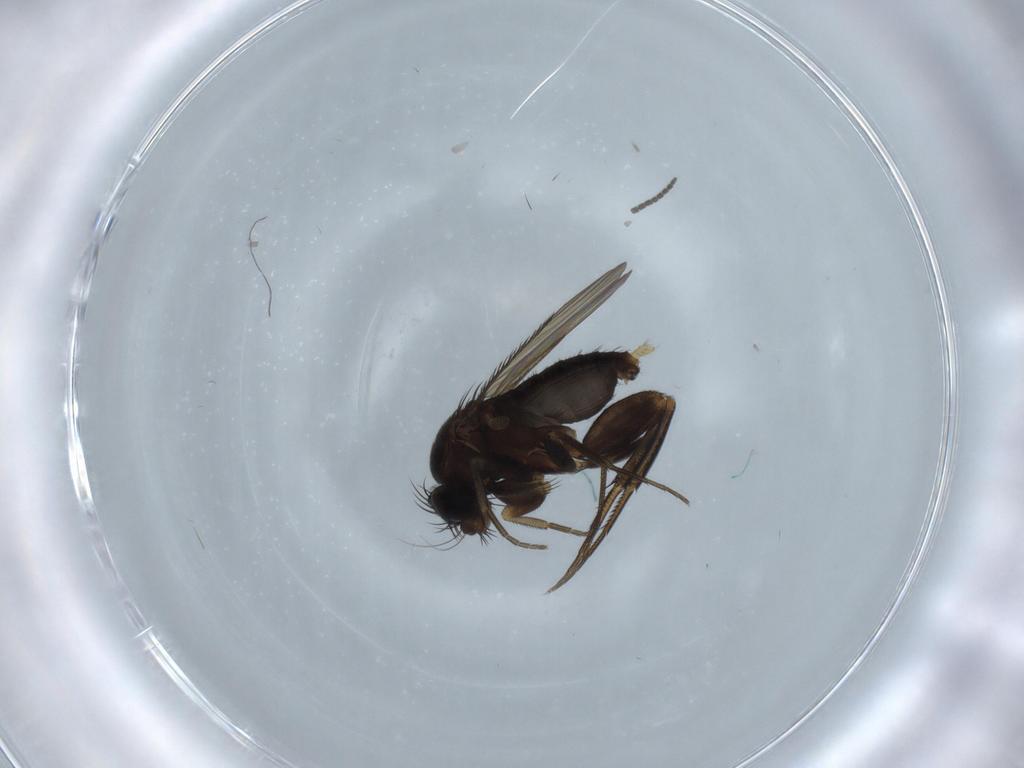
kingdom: Animalia
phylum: Arthropoda
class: Insecta
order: Diptera
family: Phoridae
